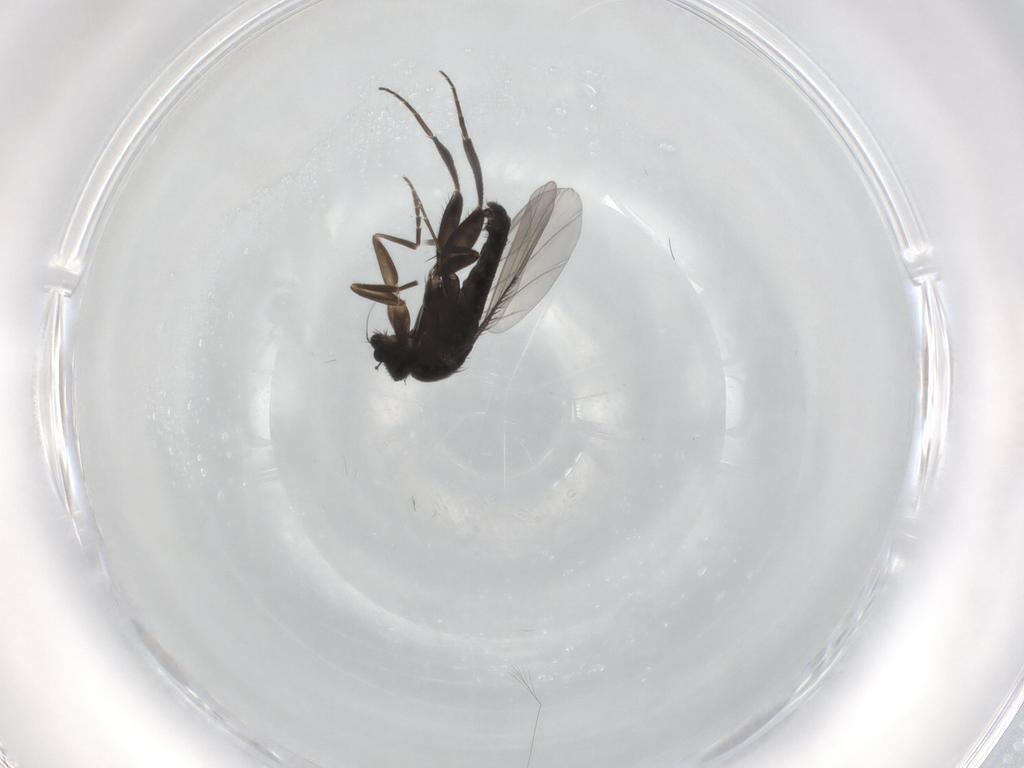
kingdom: Animalia
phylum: Arthropoda
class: Insecta
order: Diptera
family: Phoridae
